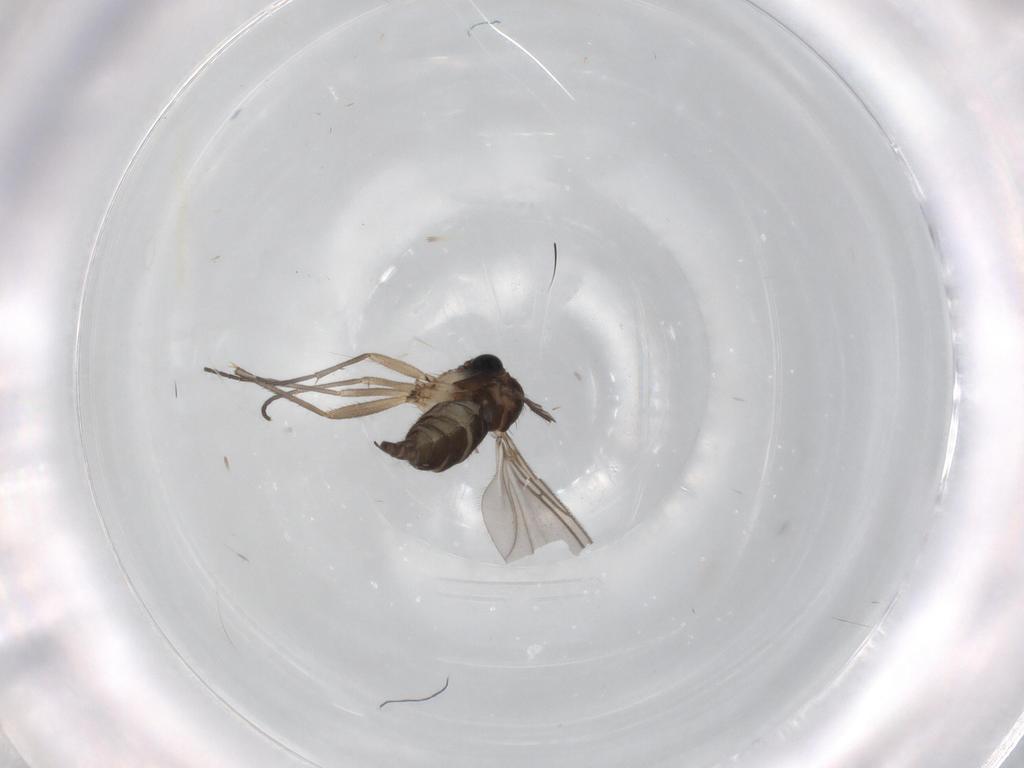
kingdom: Animalia
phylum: Arthropoda
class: Insecta
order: Diptera
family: Sciaridae
